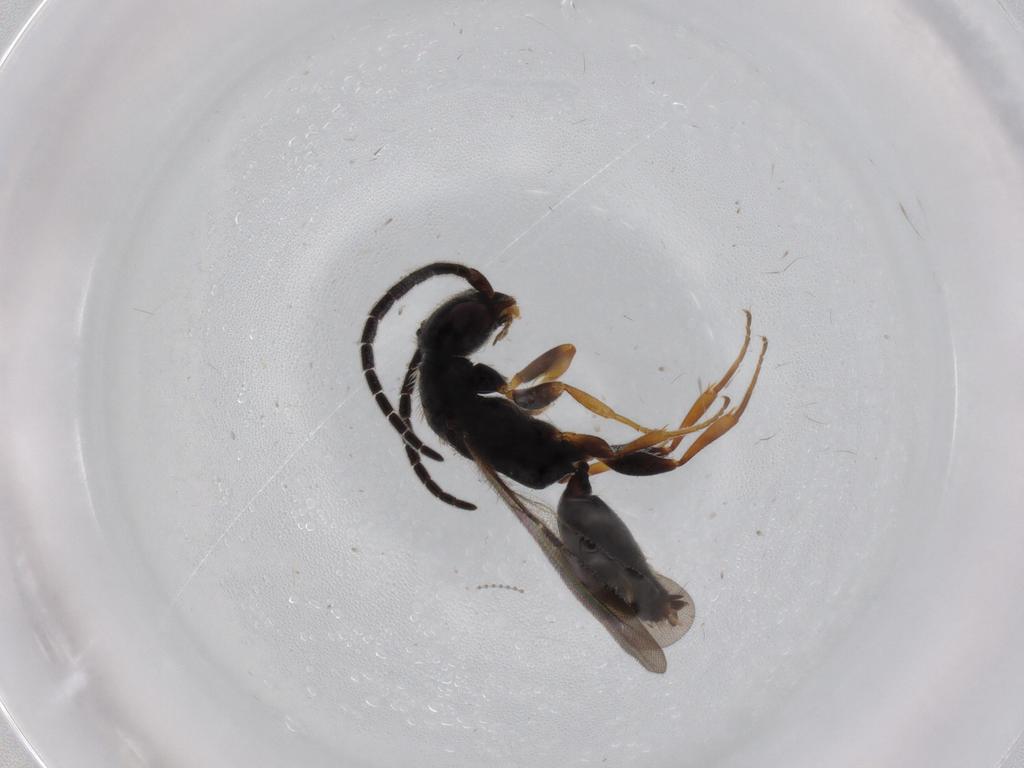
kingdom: Animalia
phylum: Arthropoda
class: Insecta
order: Hymenoptera
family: Bethylidae
